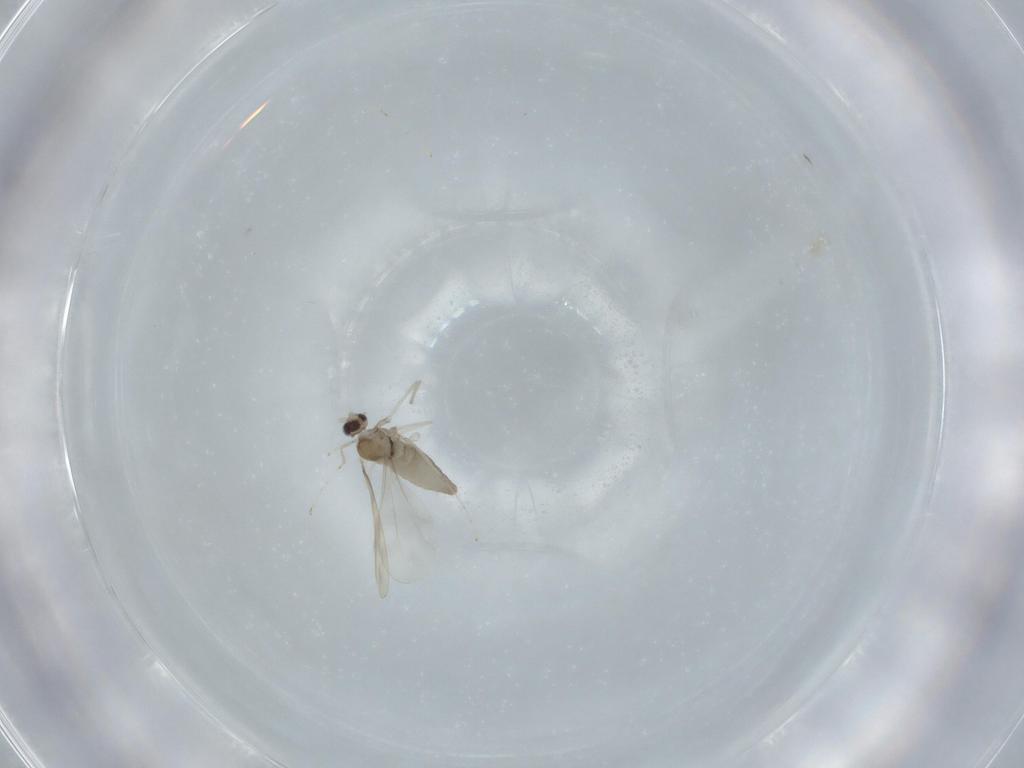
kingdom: Animalia
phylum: Arthropoda
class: Insecta
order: Diptera
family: Cecidomyiidae
